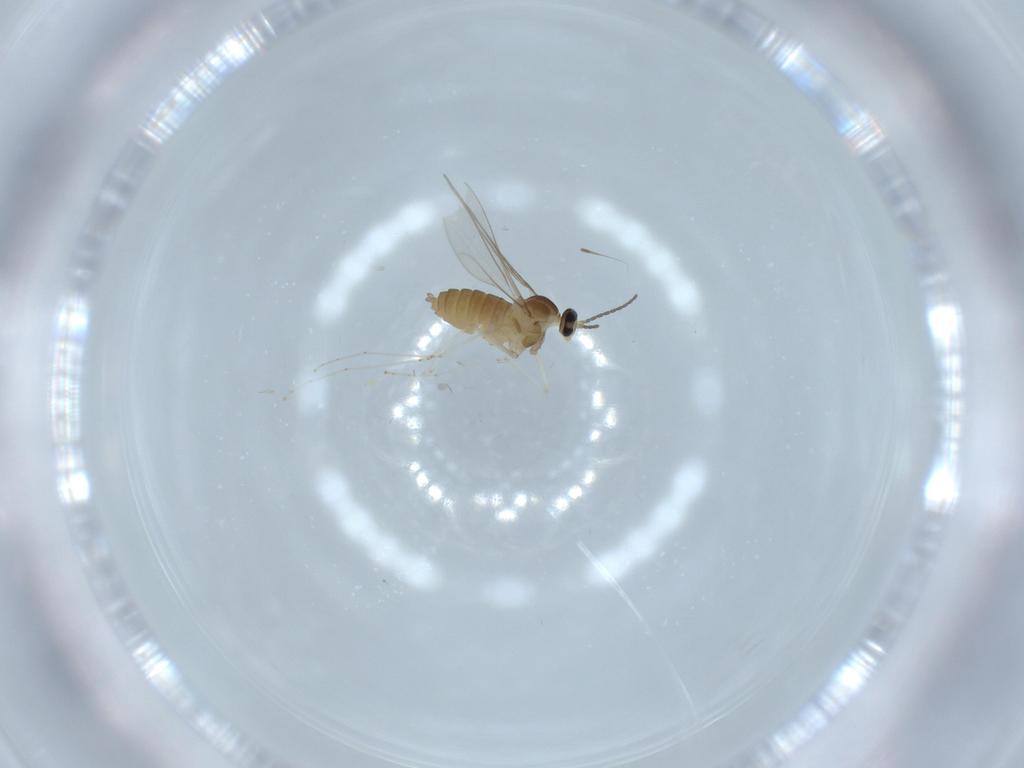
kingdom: Animalia
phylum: Arthropoda
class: Insecta
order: Diptera
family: Cecidomyiidae
